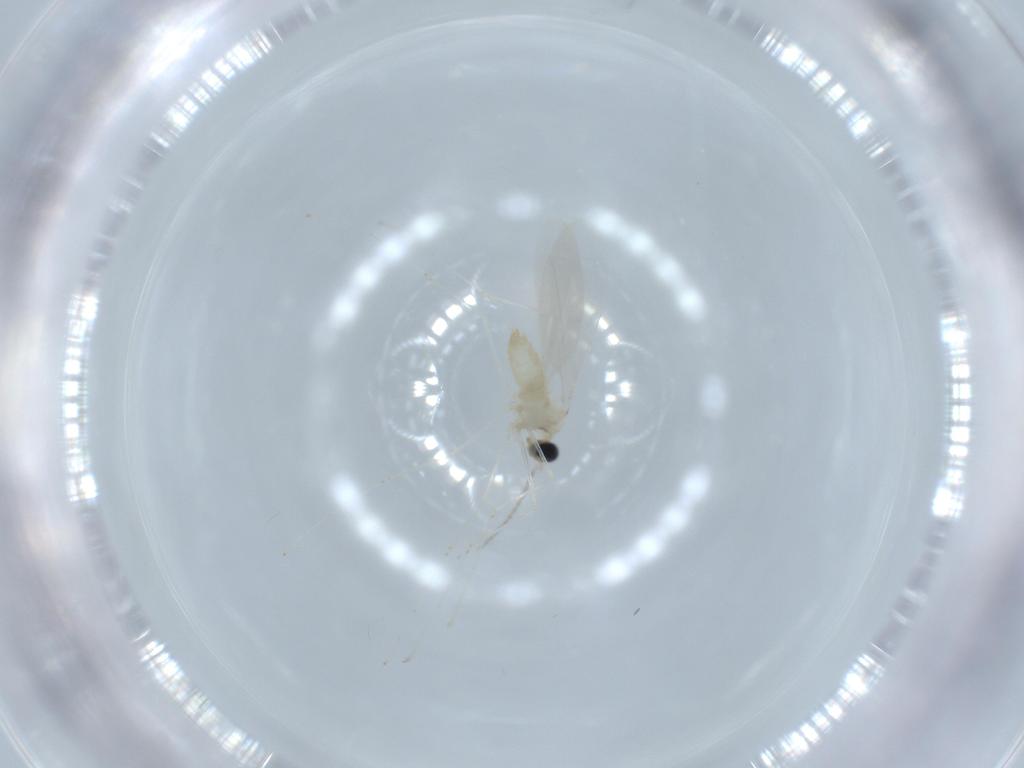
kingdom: Animalia
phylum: Arthropoda
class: Insecta
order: Diptera
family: Cecidomyiidae
